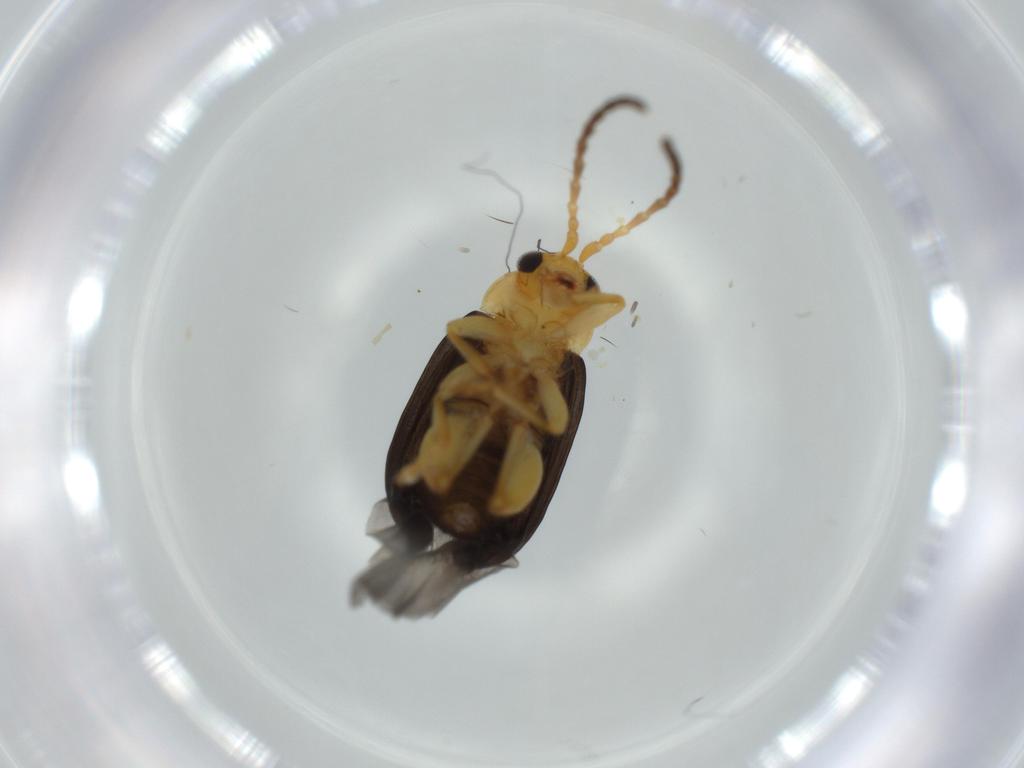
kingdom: Animalia
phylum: Arthropoda
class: Insecta
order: Coleoptera
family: Chrysomelidae
